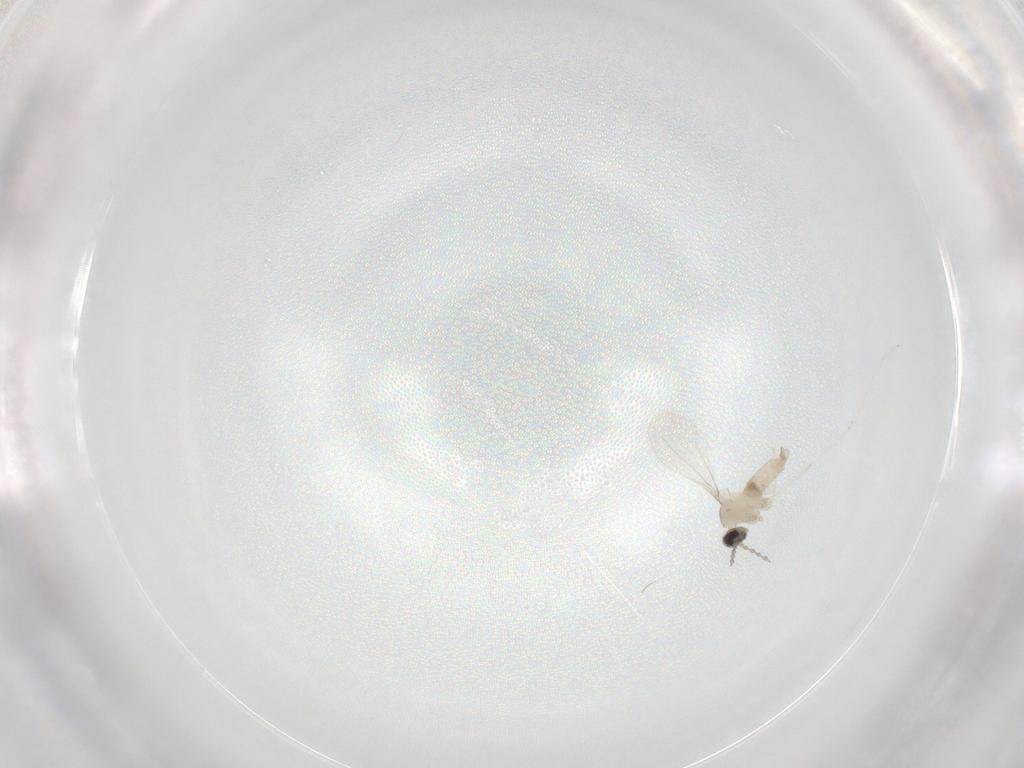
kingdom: Animalia
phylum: Arthropoda
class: Insecta
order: Diptera
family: Cecidomyiidae
